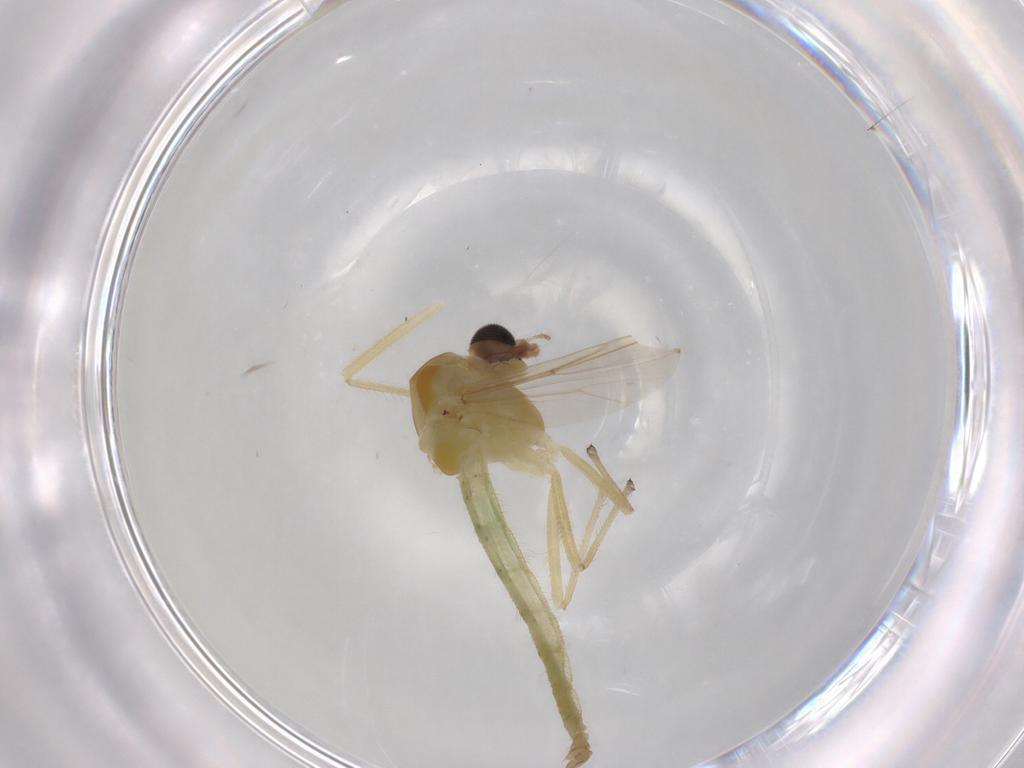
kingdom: Animalia
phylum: Arthropoda
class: Insecta
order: Diptera
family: Chironomidae
